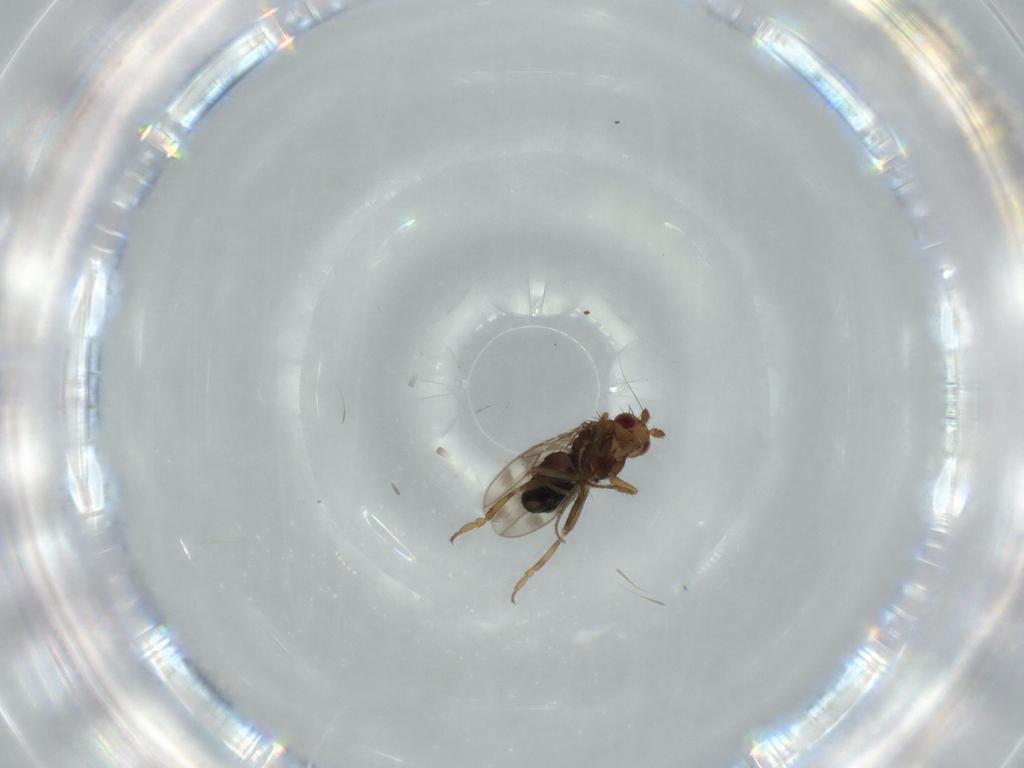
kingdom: Animalia
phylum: Arthropoda
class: Insecta
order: Diptera
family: Sphaeroceridae
